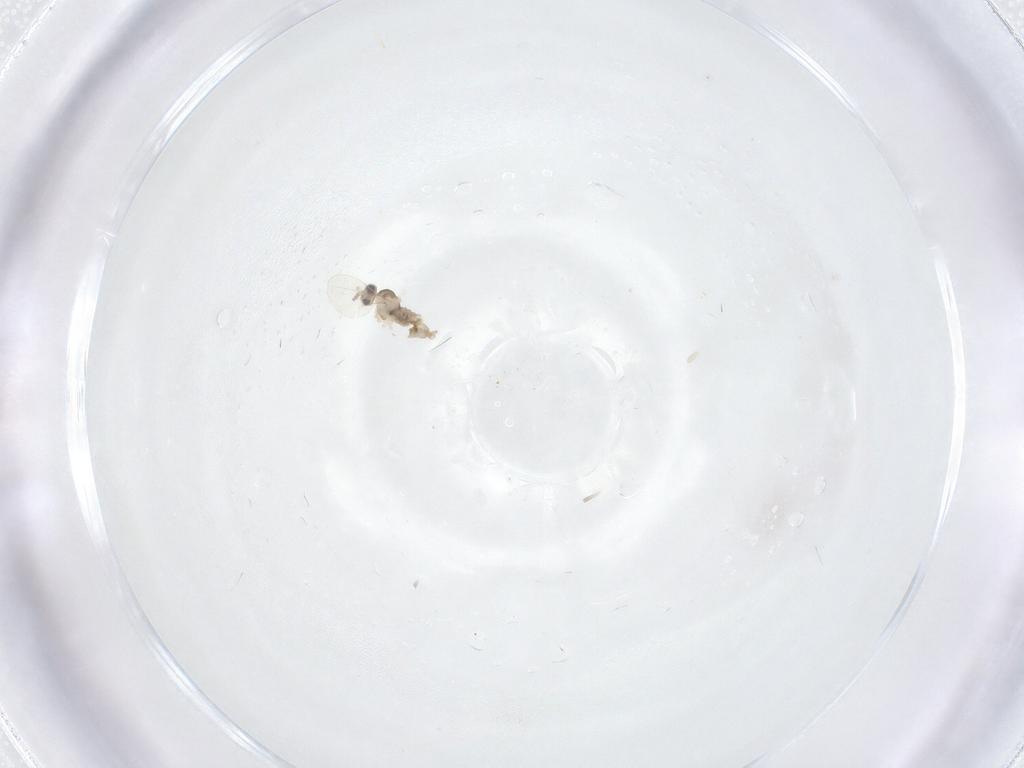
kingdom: Animalia
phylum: Arthropoda
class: Insecta
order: Diptera
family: Cecidomyiidae
